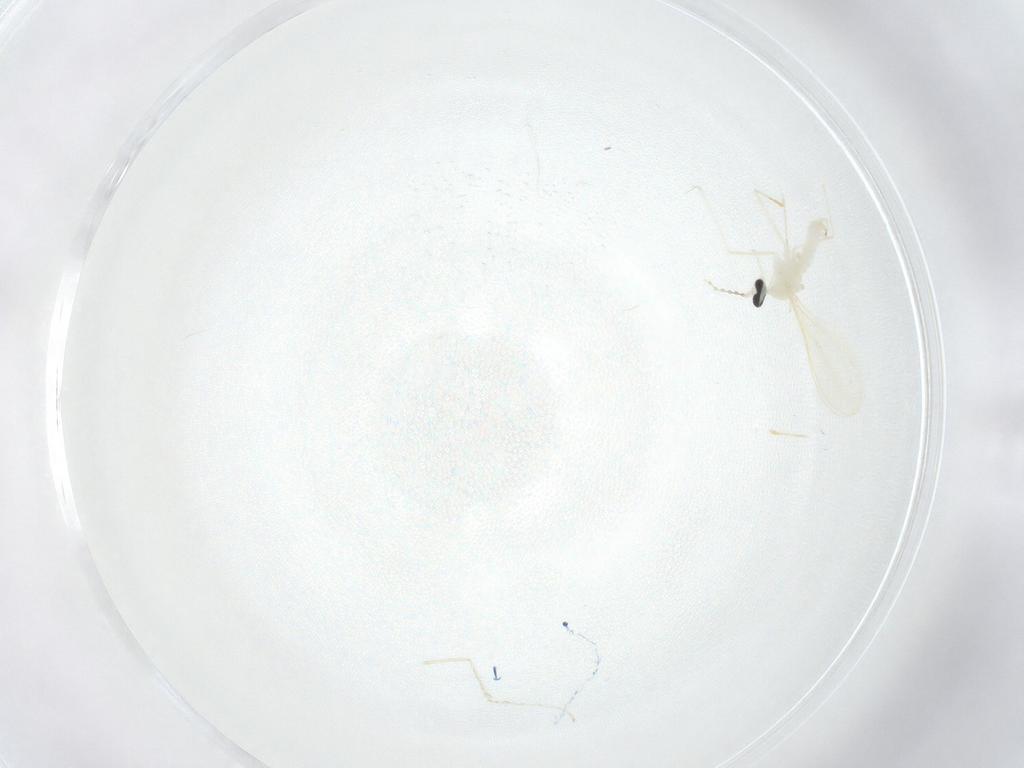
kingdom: Animalia
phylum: Arthropoda
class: Insecta
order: Diptera
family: Cecidomyiidae
